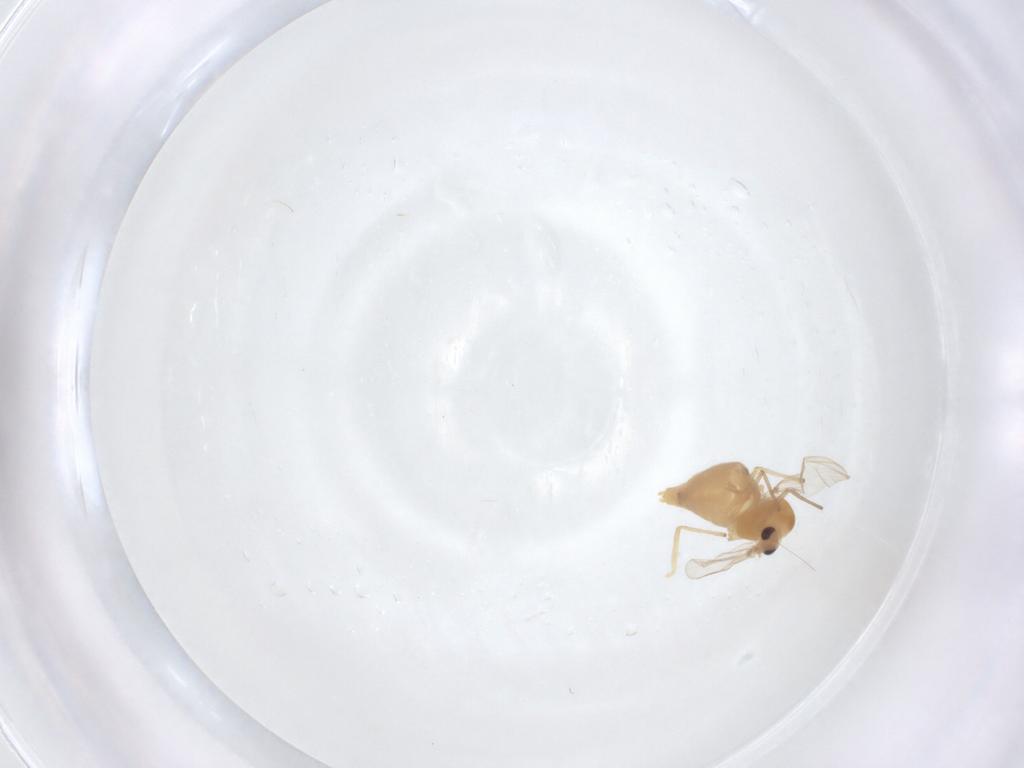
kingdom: Animalia
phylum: Arthropoda
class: Insecta
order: Diptera
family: Chironomidae
